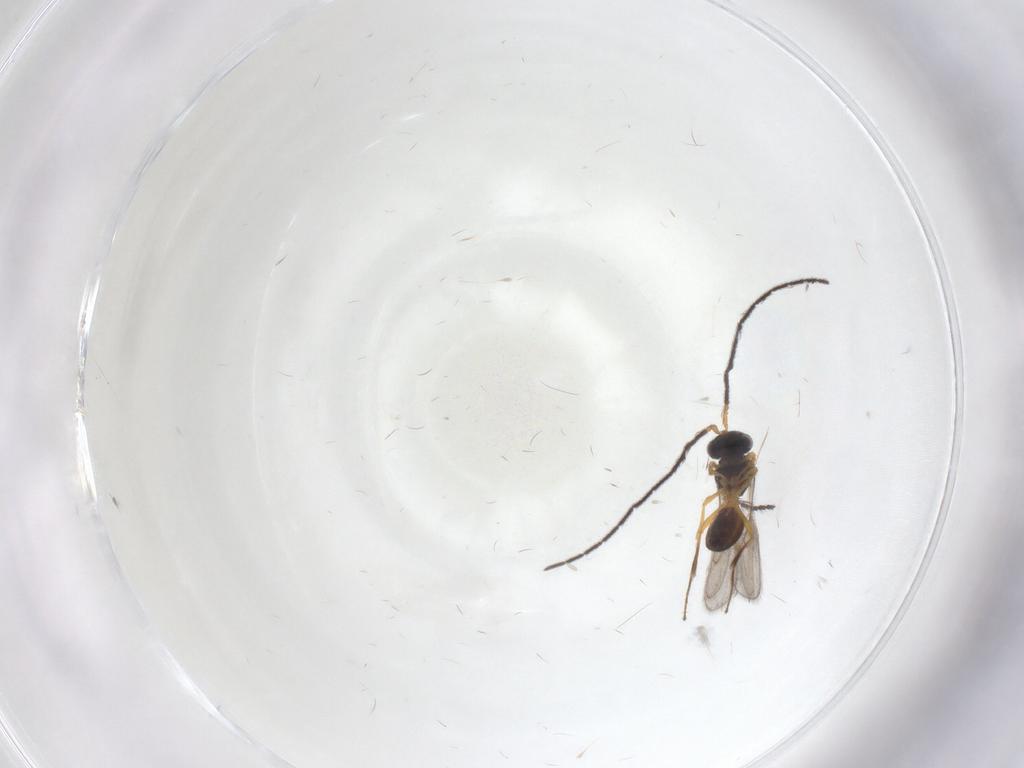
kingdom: Animalia
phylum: Arthropoda
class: Insecta
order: Diptera
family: Cecidomyiidae
